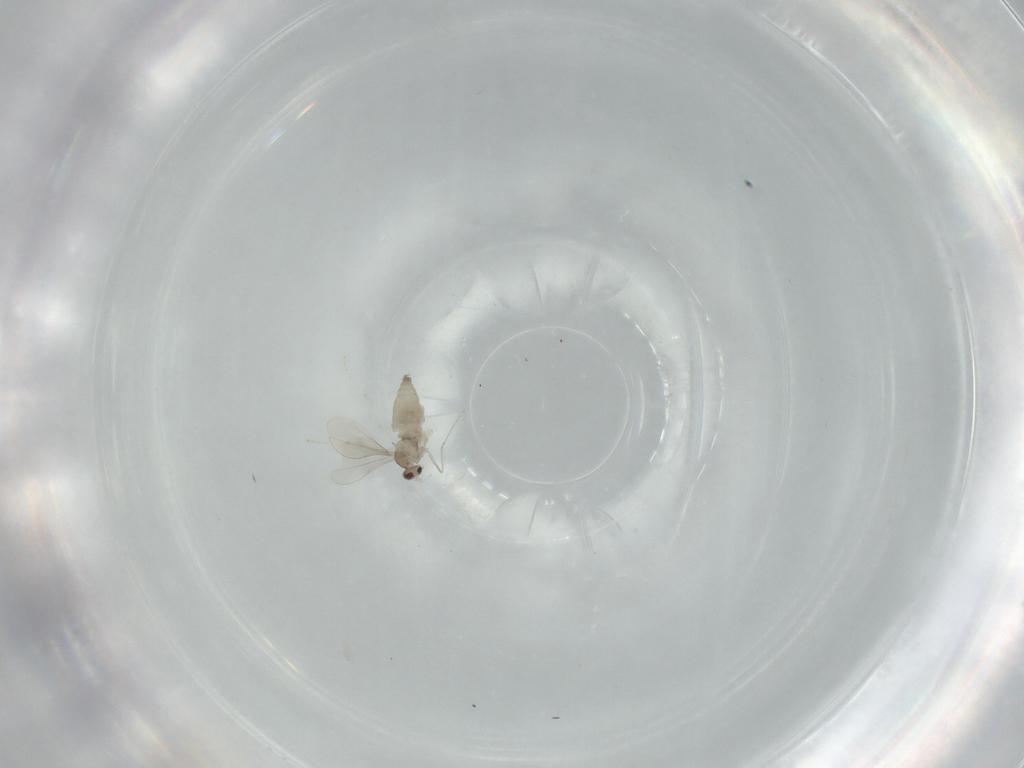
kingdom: Animalia
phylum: Arthropoda
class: Insecta
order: Diptera
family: Cecidomyiidae
